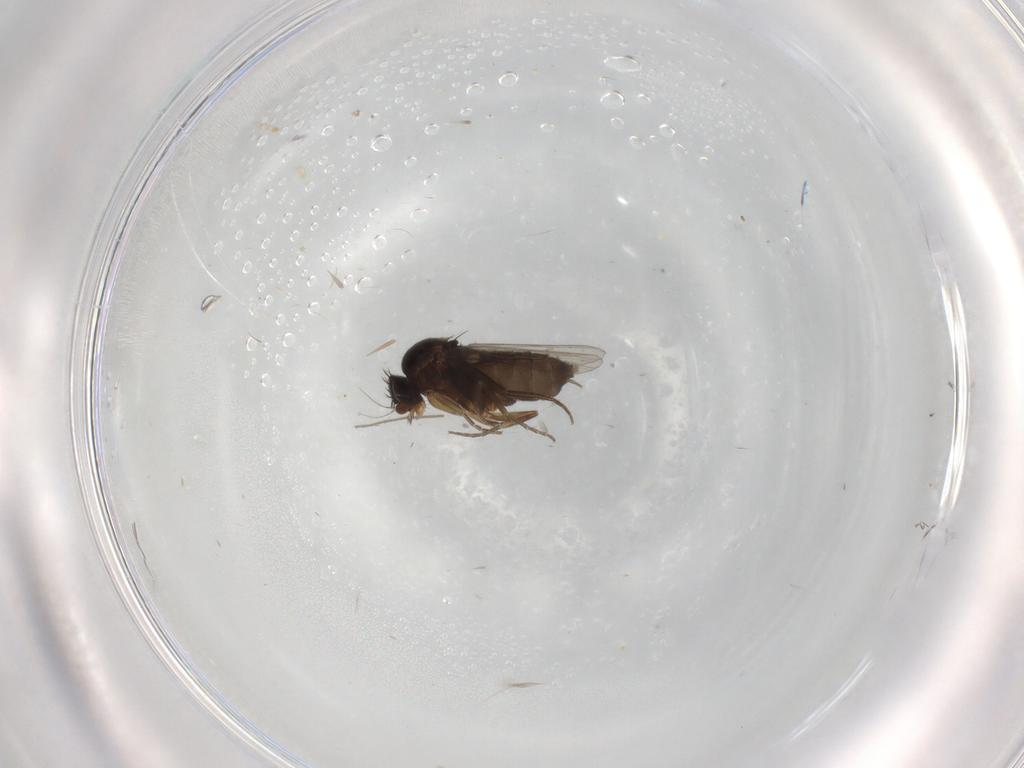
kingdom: Animalia
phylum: Arthropoda
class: Insecta
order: Diptera
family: Phoridae
